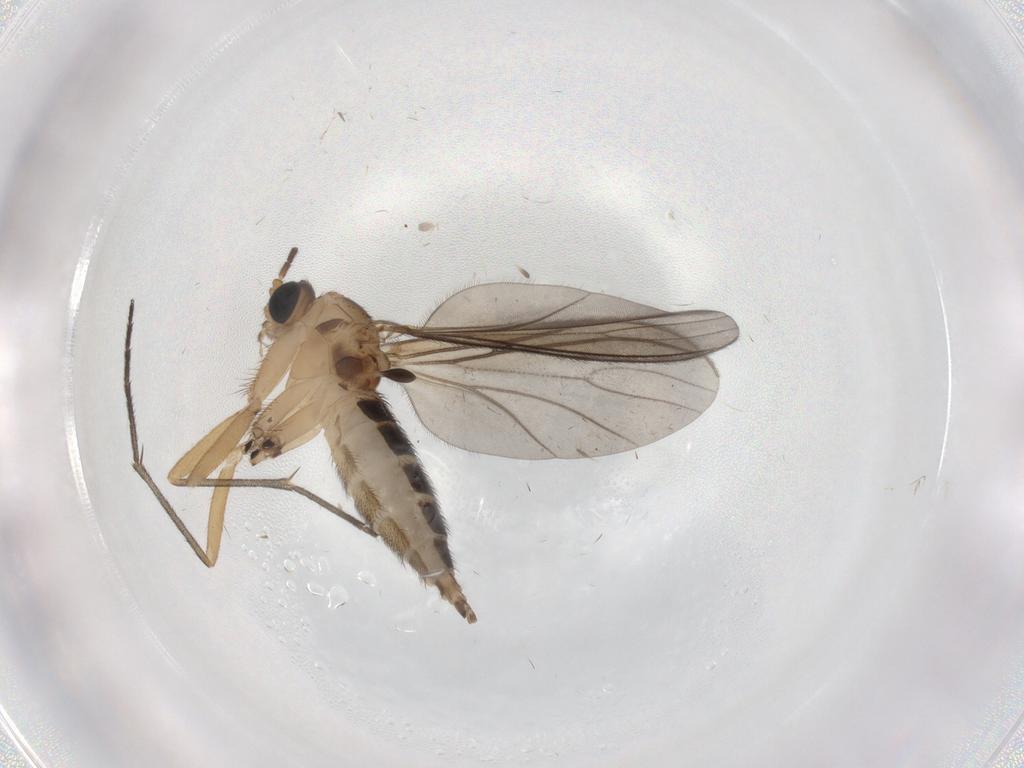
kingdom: Animalia
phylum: Arthropoda
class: Insecta
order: Diptera
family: Sciaridae
